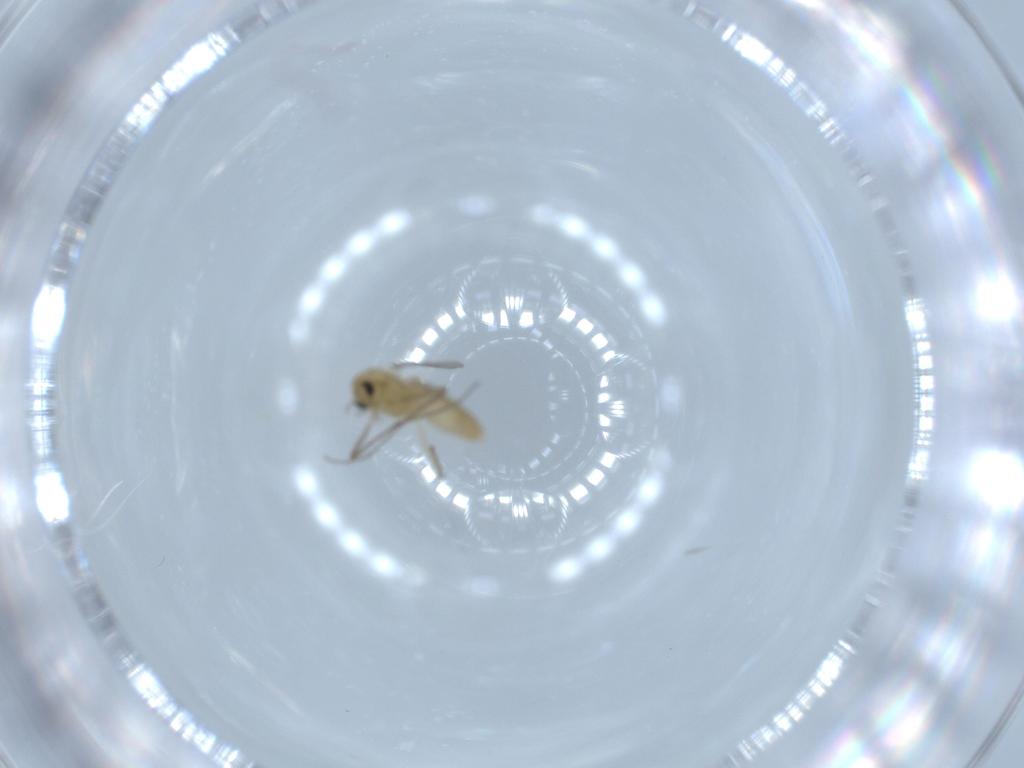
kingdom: Animalia
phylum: Arthropoda
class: Insecta
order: Diptera
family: Chironomidae
